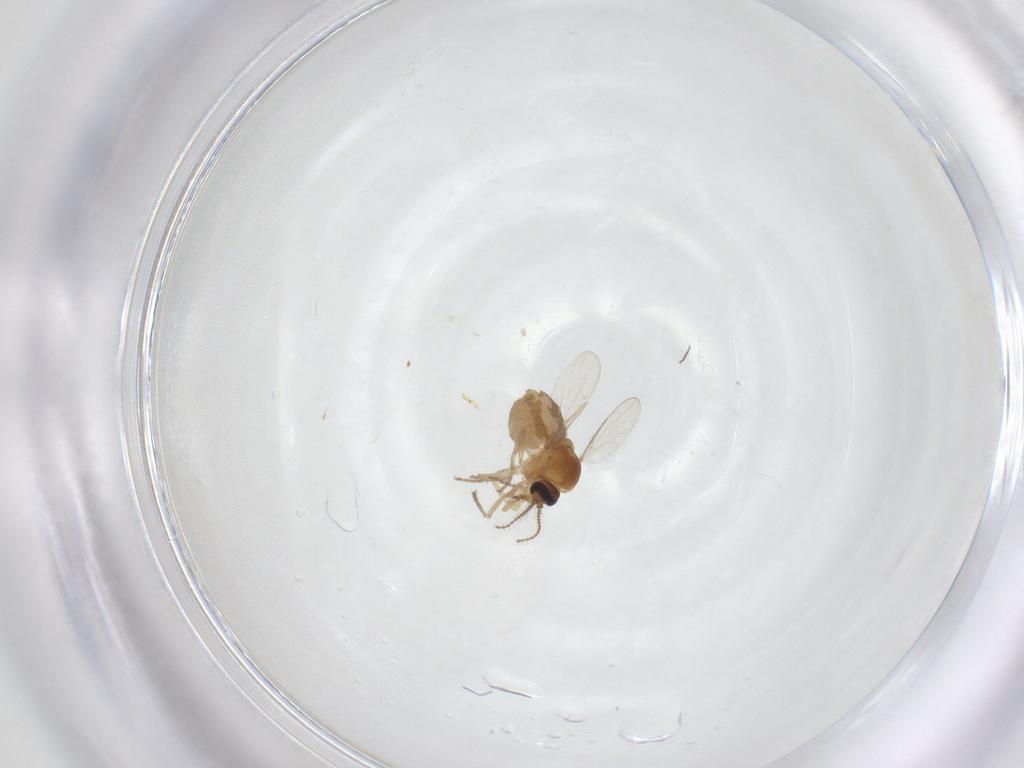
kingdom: Animalia
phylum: Arthropoda
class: Insecta
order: Diptera
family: Ceratopogonidae
